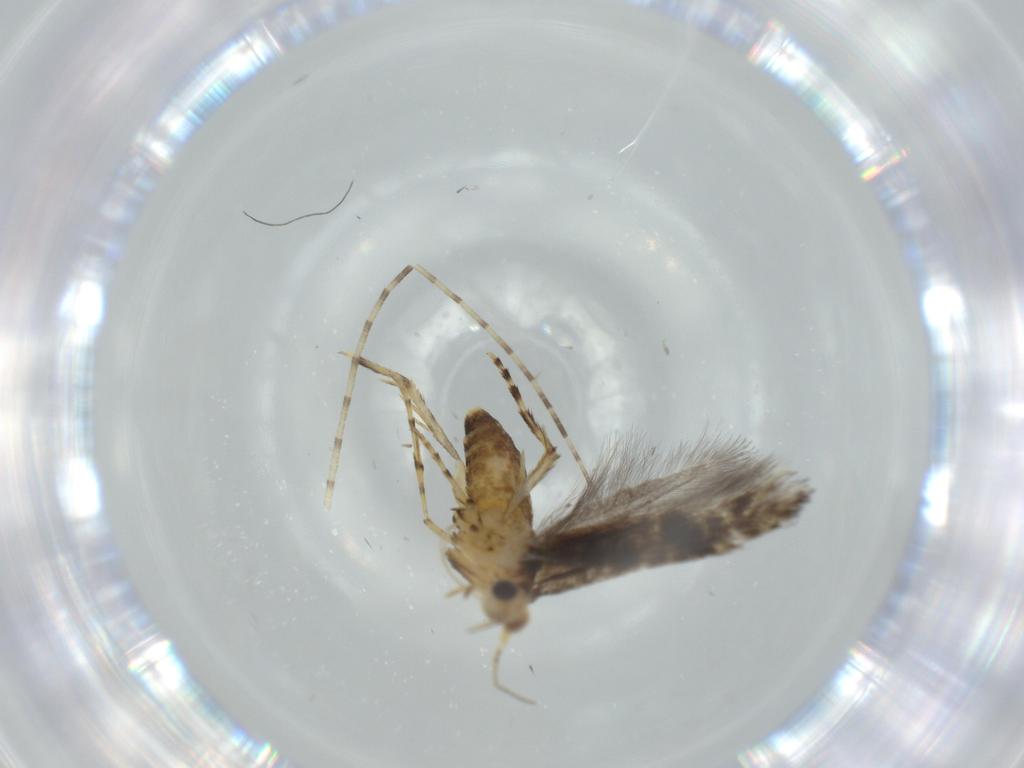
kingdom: Animalia
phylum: Arthropoda
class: Insecta
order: Lepidoptera
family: Argyresthiidae
